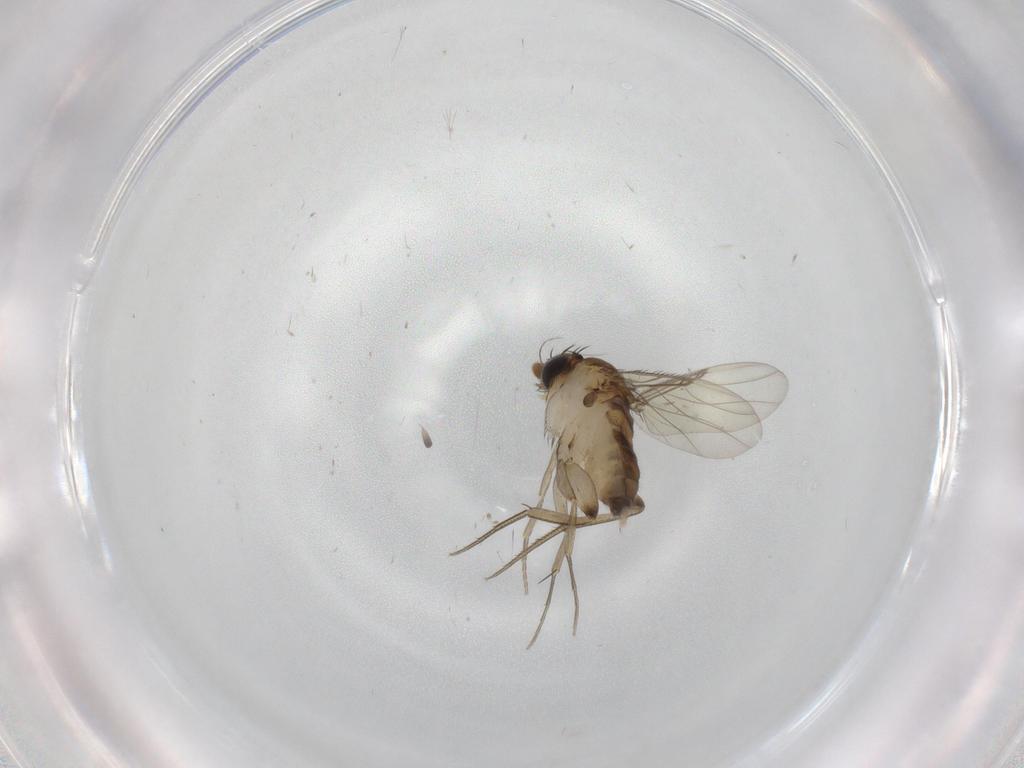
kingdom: Animalia
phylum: Arthropoda
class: Insecta
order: Diptera
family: Phoridae
